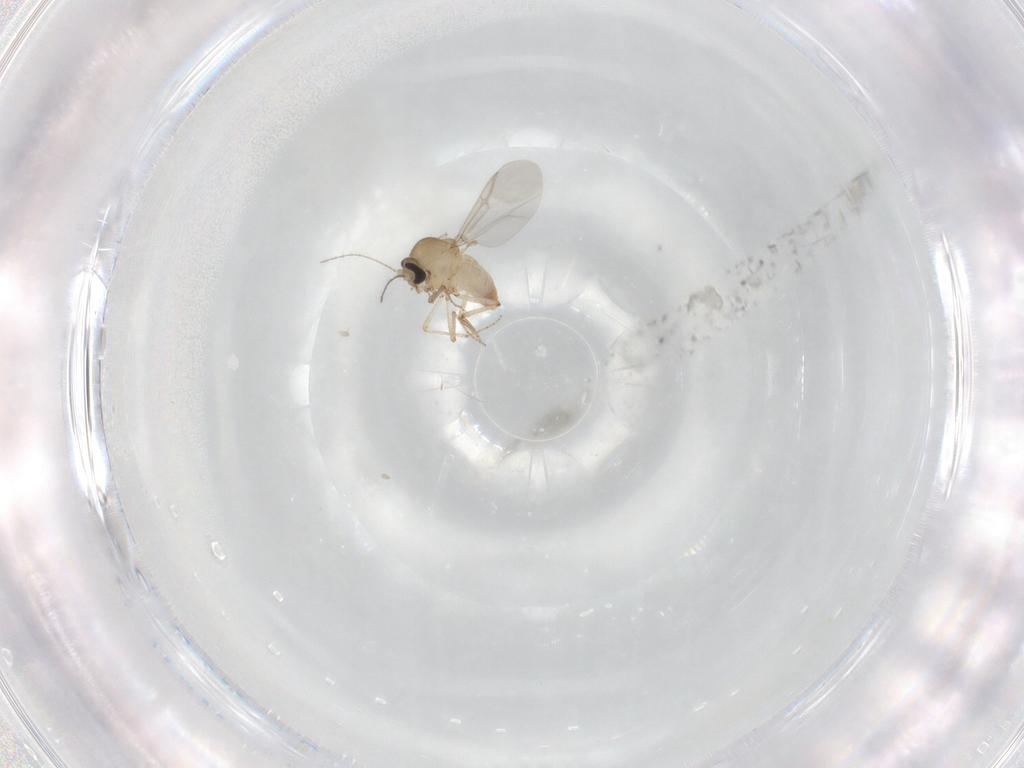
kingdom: Animalia
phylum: Arthropoda
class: Insecta
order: Diptera
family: Ceratopogonidae
